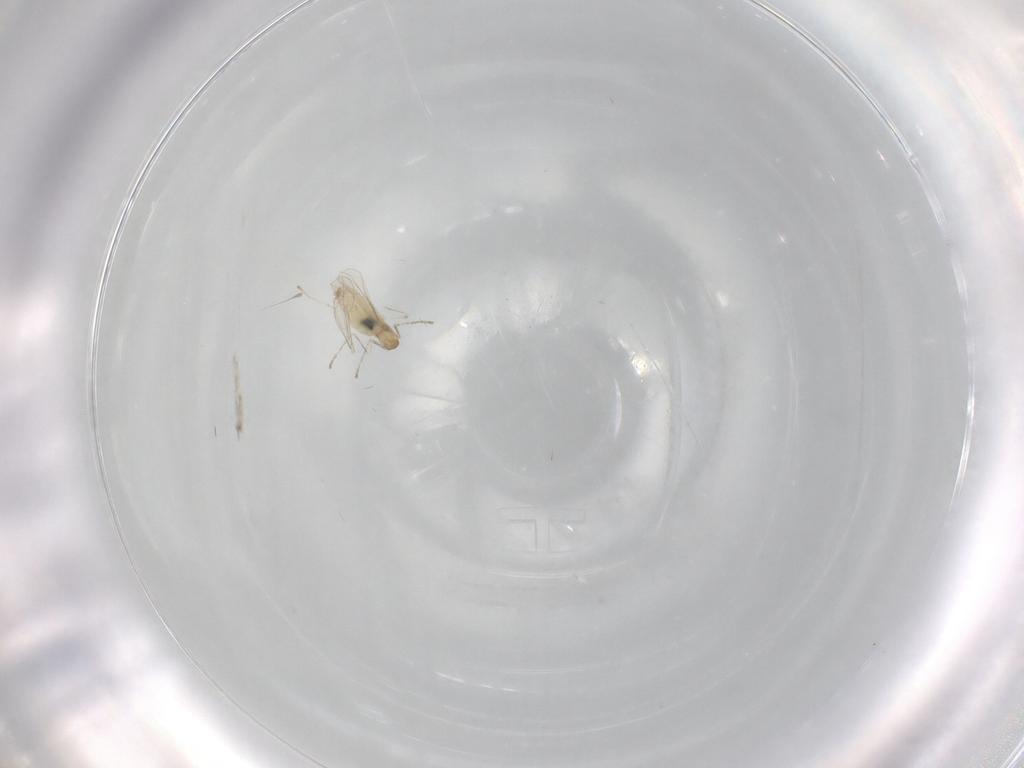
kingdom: Animalia
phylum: Arthropoda
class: Insecta
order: Diptera
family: Cecidomyiidae
